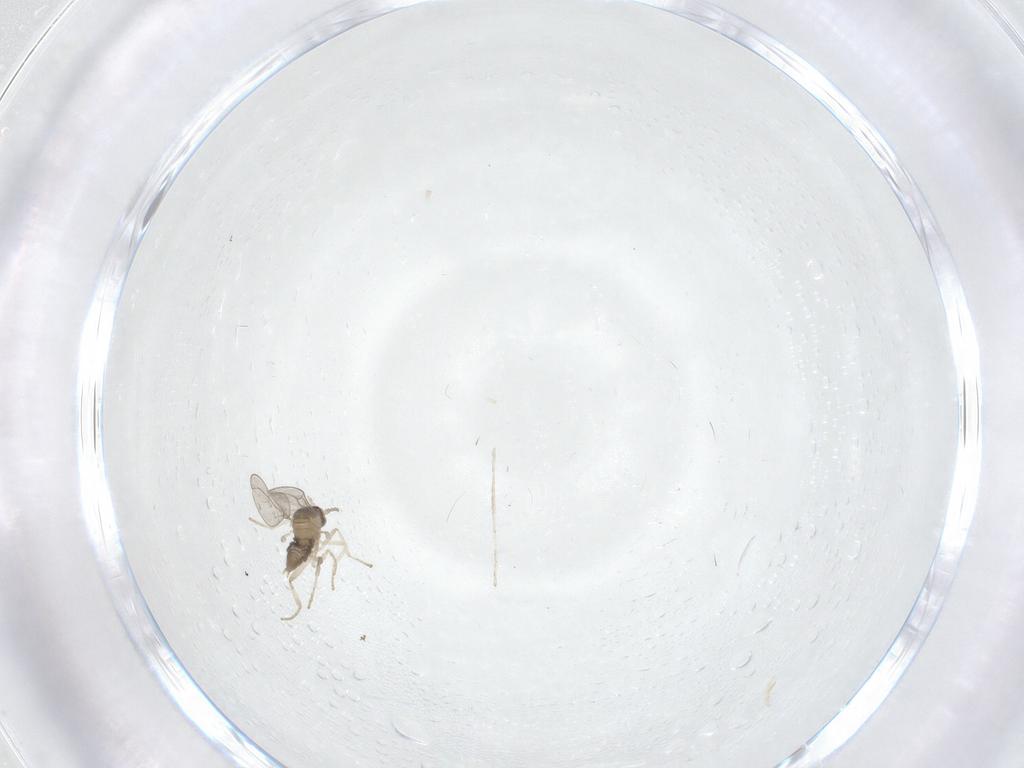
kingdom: Animalia
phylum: Arthropoda
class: Insecta
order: Diptera
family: Cecidomyiidae
